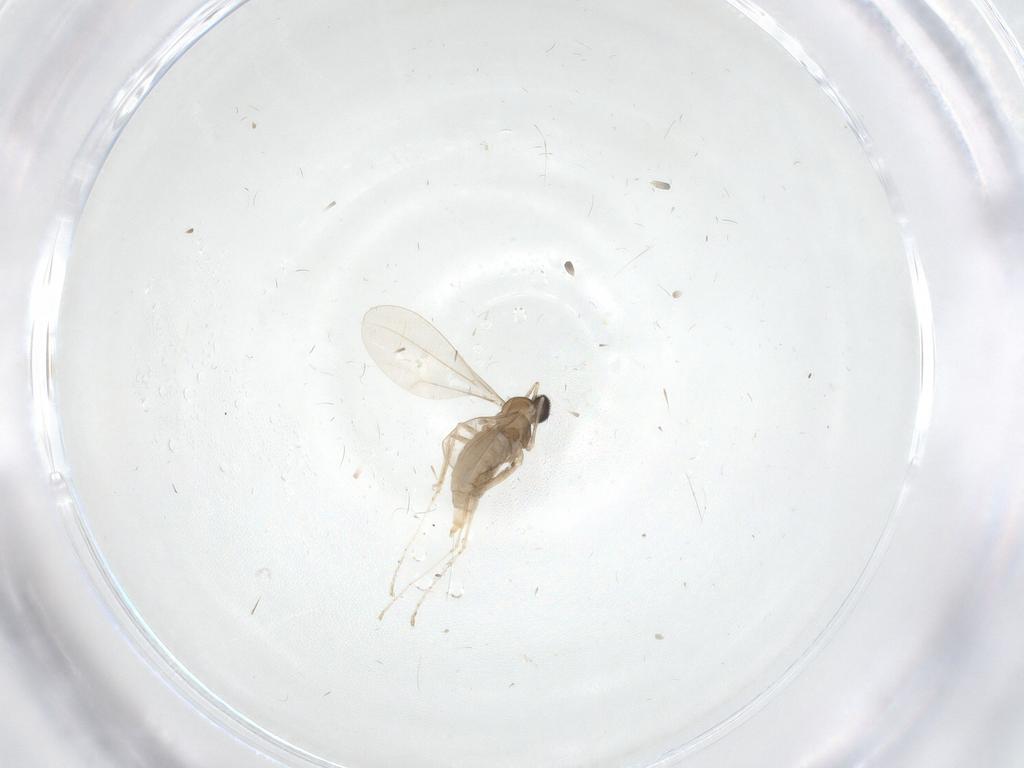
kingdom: Animalia
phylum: Arthropoda
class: Insecta
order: Diptera
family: Cecidomyiidae
